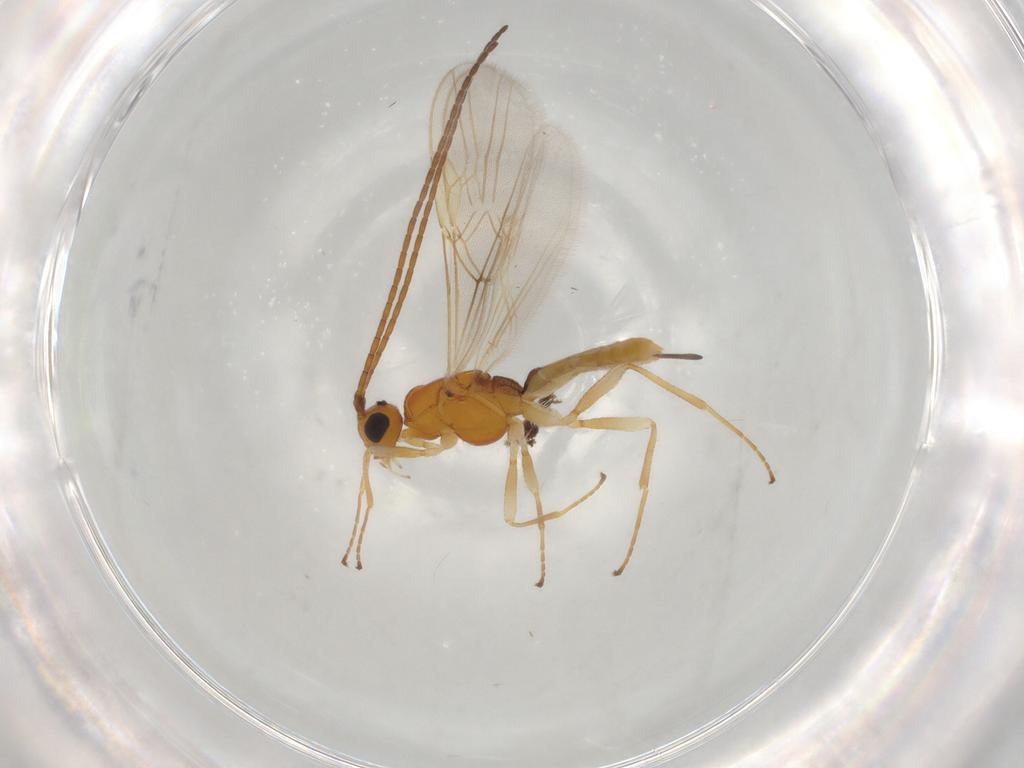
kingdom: Animalia
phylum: Arthropoda
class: Insecta
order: Hymenoptera
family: Braconidae
